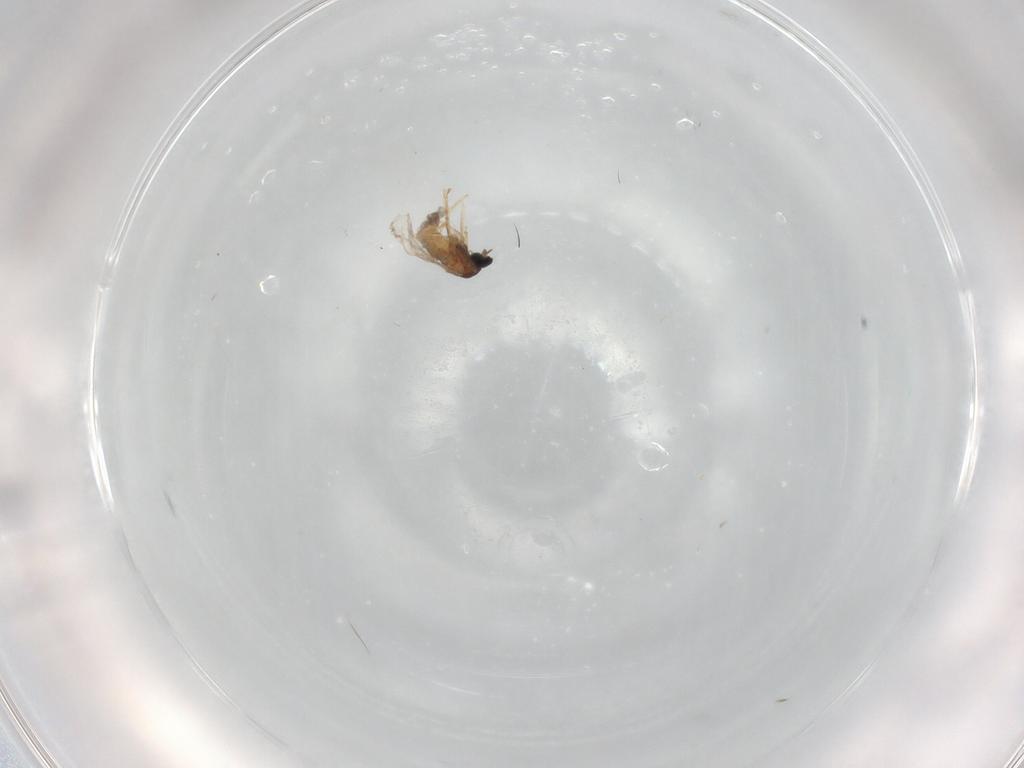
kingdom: Animalia
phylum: Arthropoda
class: Insecta
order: Diptera
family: Cecidomyiidae
